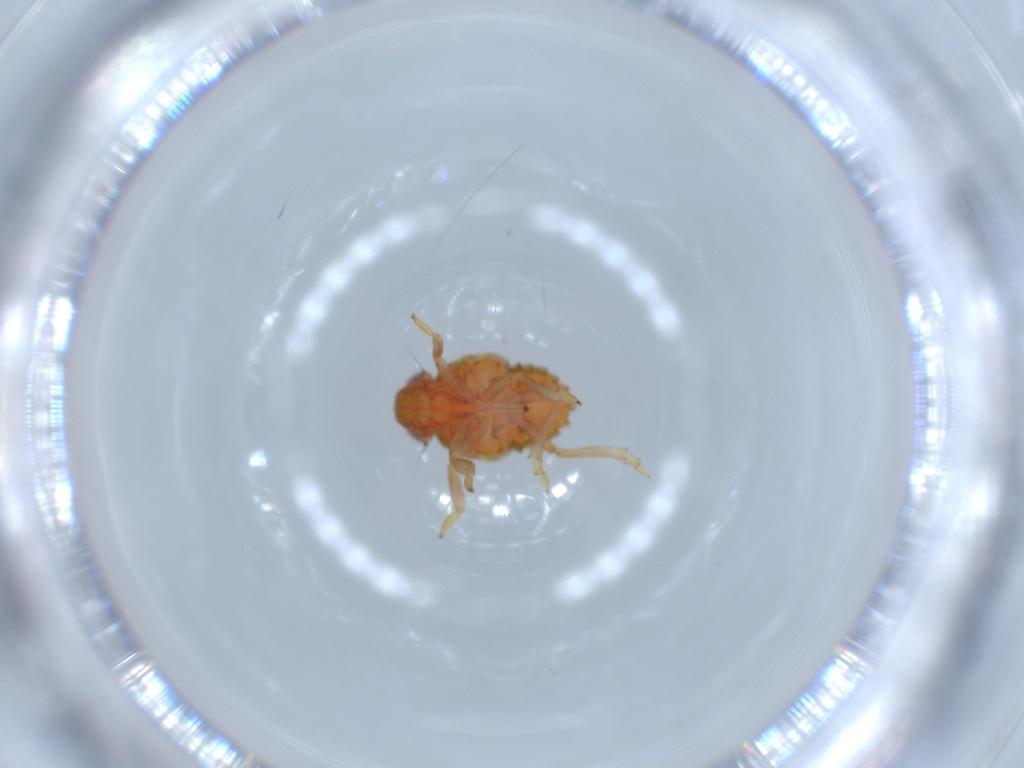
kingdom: Animalia
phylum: Arthropoda
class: Insecta
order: Hemiptera
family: Issidae
